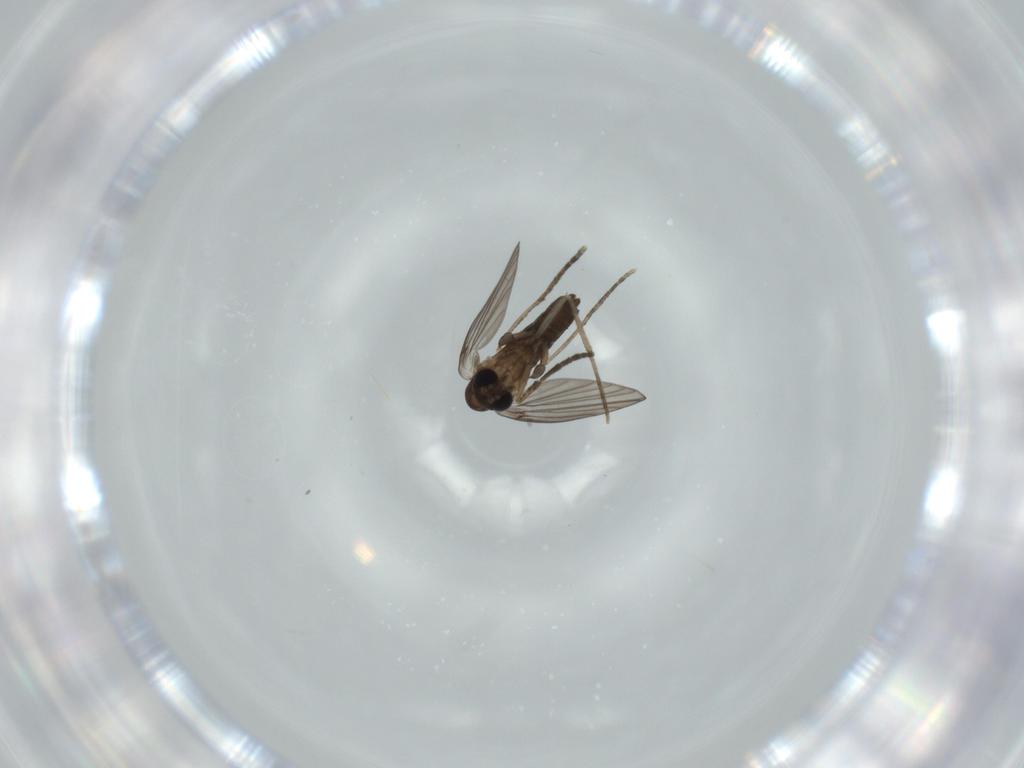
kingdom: Animalia
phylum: Arthropoda
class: Insecta
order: Diptera
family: Psychodidae
